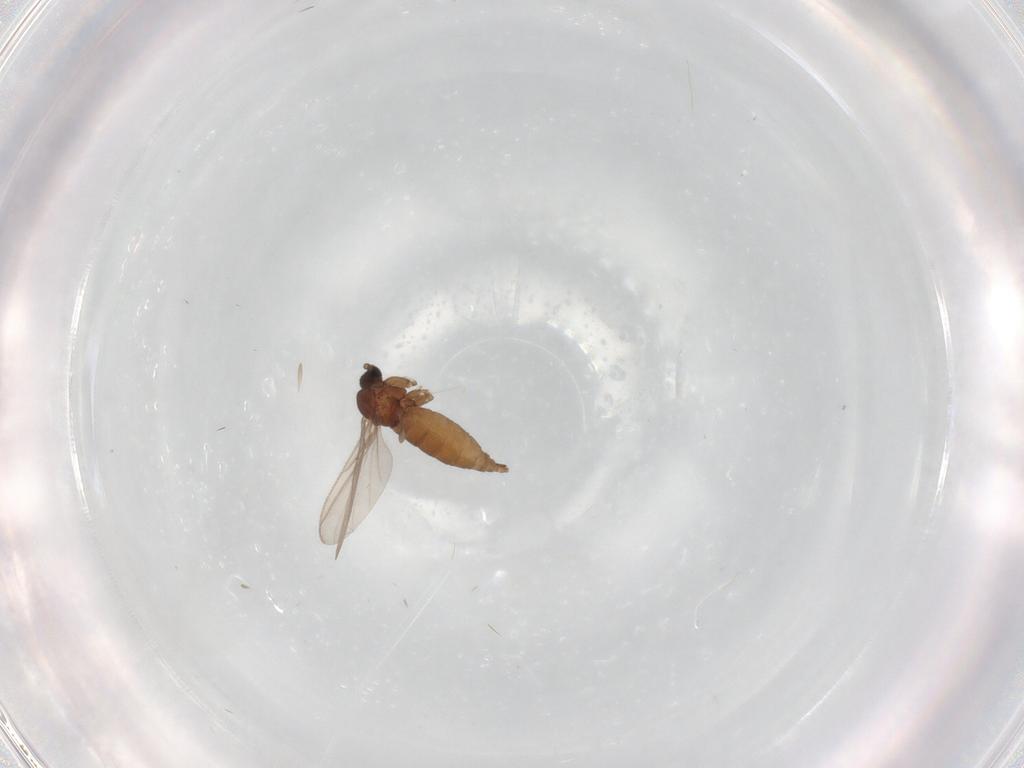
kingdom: Animalia
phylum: Arthropoda
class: Insecta
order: Diptera
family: Sciaridae
